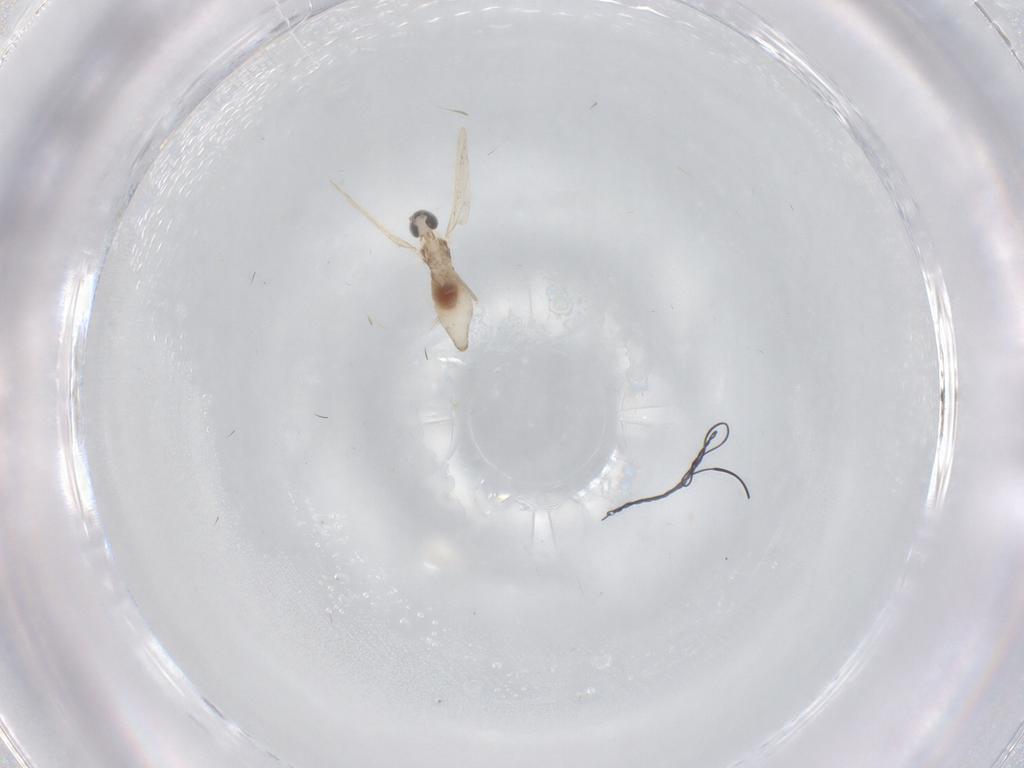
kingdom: Animalia
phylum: Arthropoda
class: Insecta
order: Diptera
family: Cecidomyiidae
